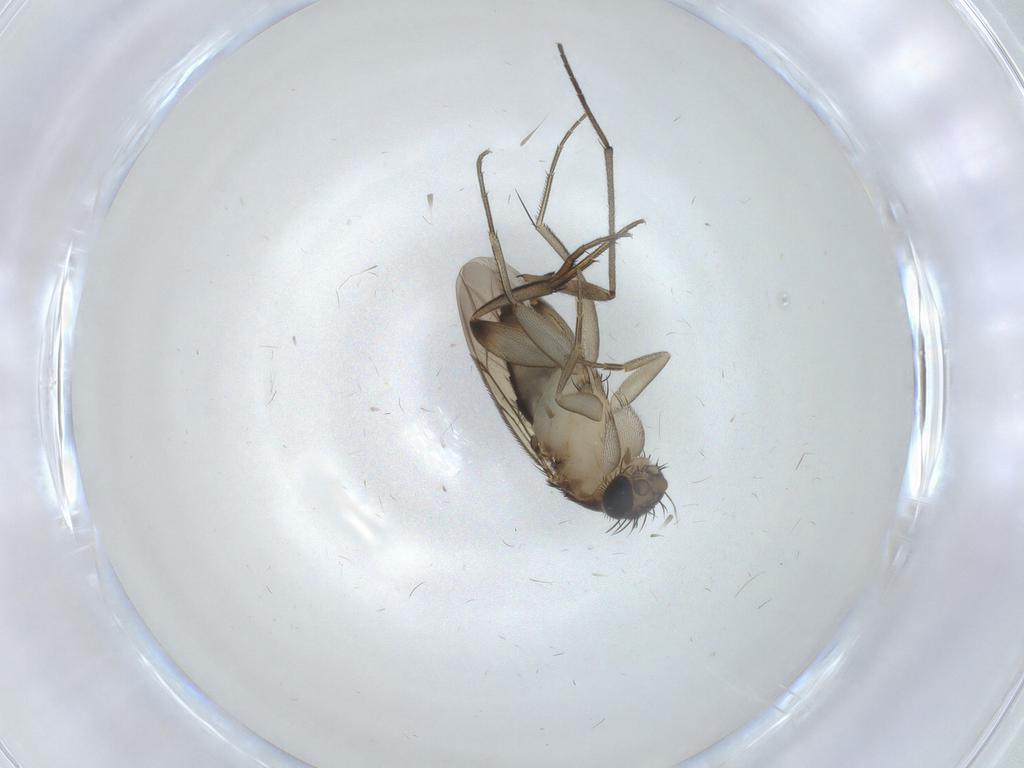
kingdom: Animalia
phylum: Arthropoda
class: Insecta
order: Diptera
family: Phoridae
